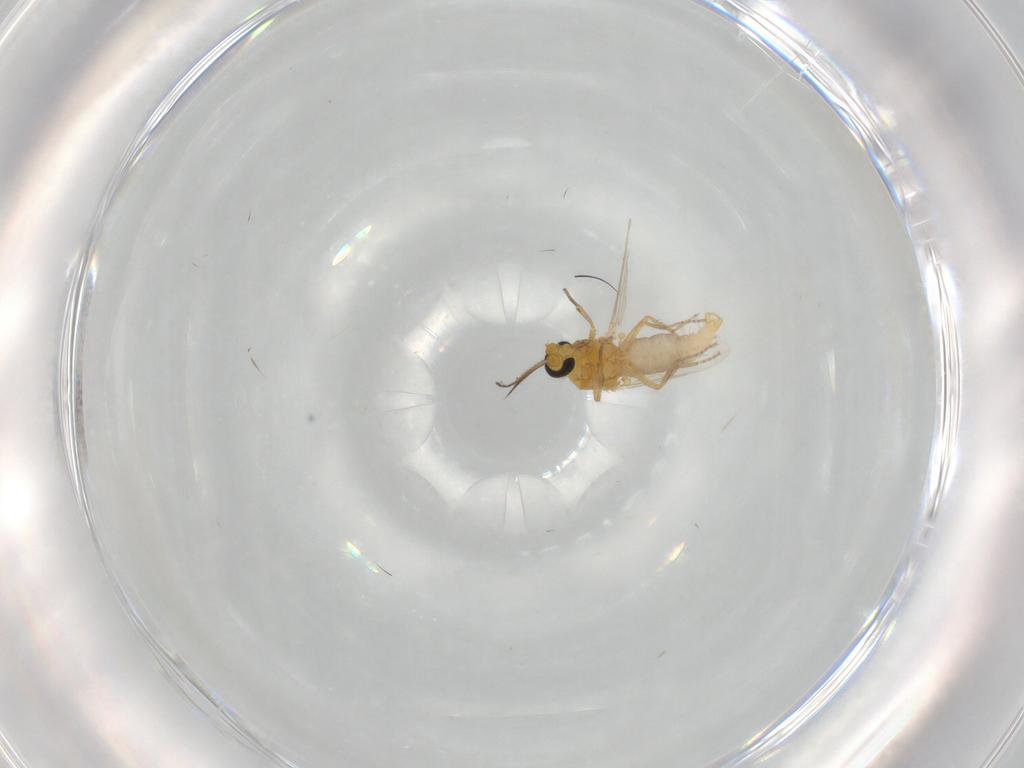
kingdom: Animalia
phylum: Arthropoda
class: Insecta
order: Diptera
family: Ceratopogonidae
